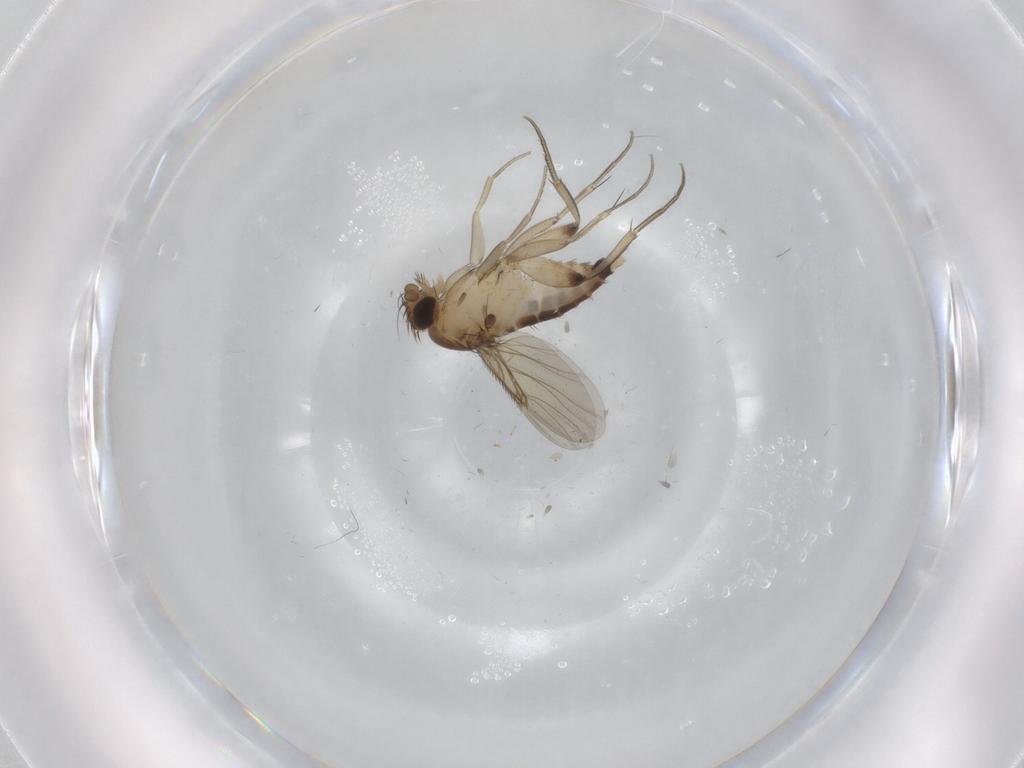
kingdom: Animalia
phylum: Arthropoda
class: Insecta
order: Diptera
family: Phoridae
